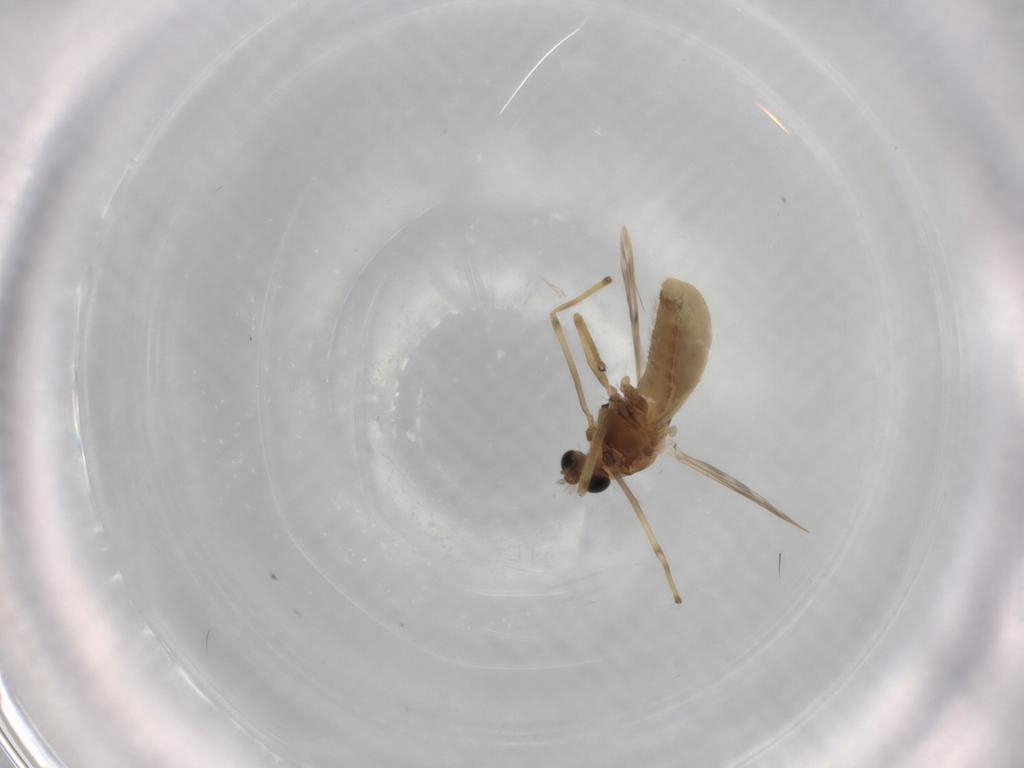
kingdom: Animalia
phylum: Arthropoda
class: Insecta
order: Diptera
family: Chironomidae
